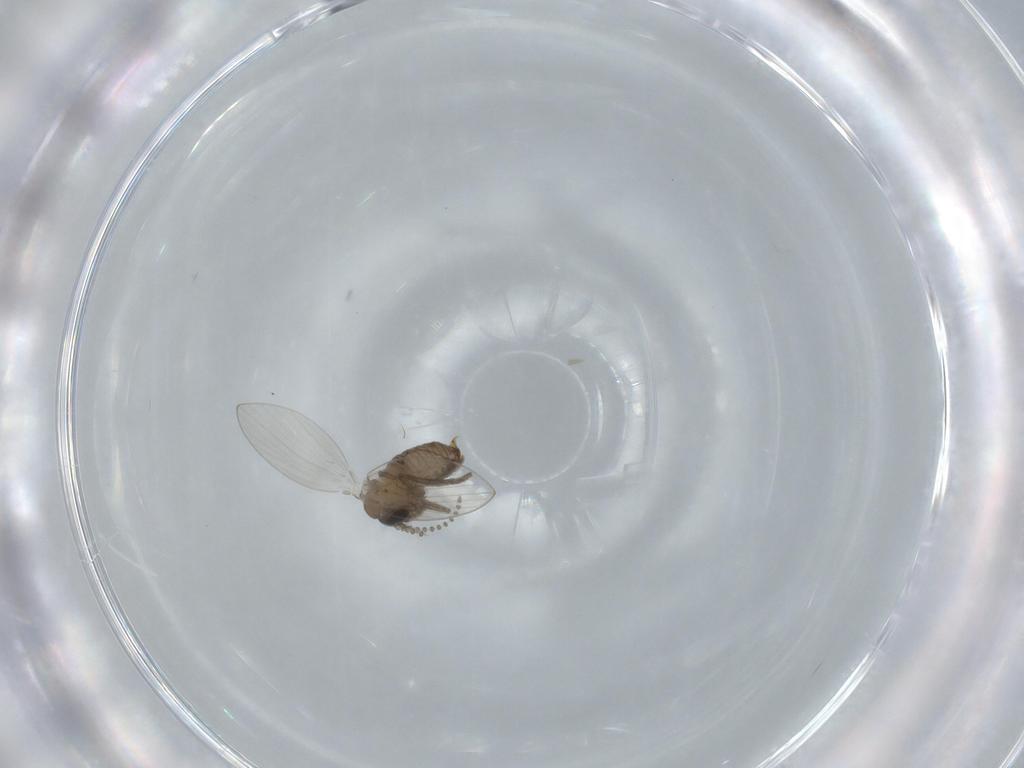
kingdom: Animalia
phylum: Arthropoda
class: Insecta
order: Diptera
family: Psychodidae
